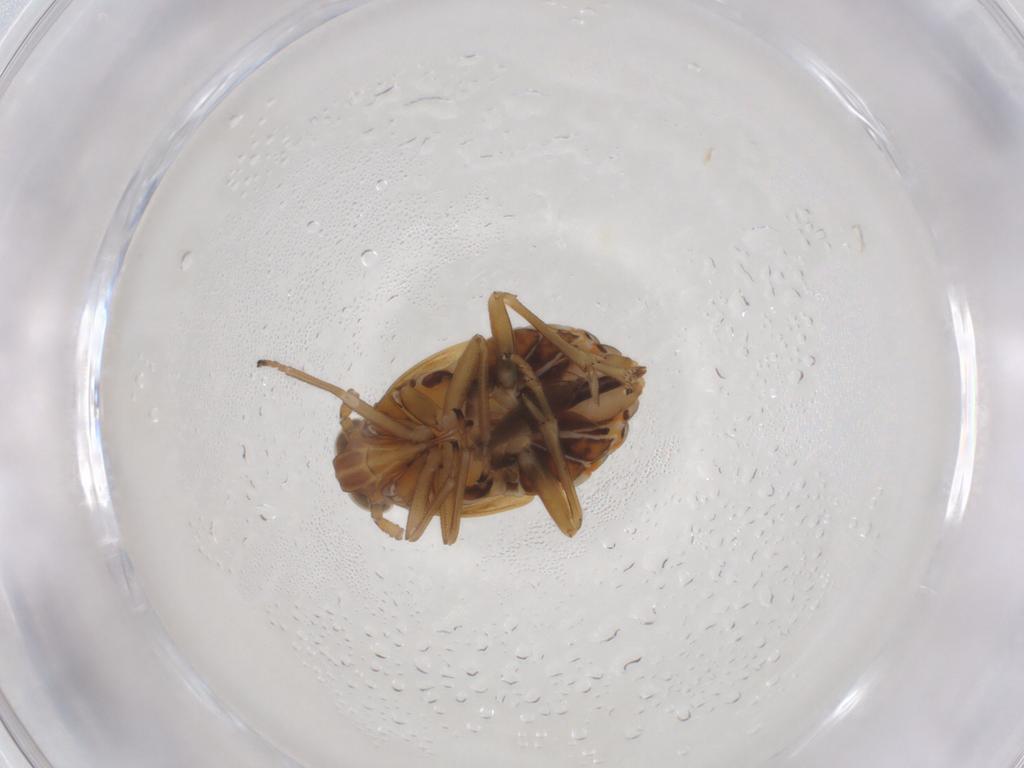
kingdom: Animalia
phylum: Arthropoda
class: Insecta
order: Hemiptera
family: Delphacidae
